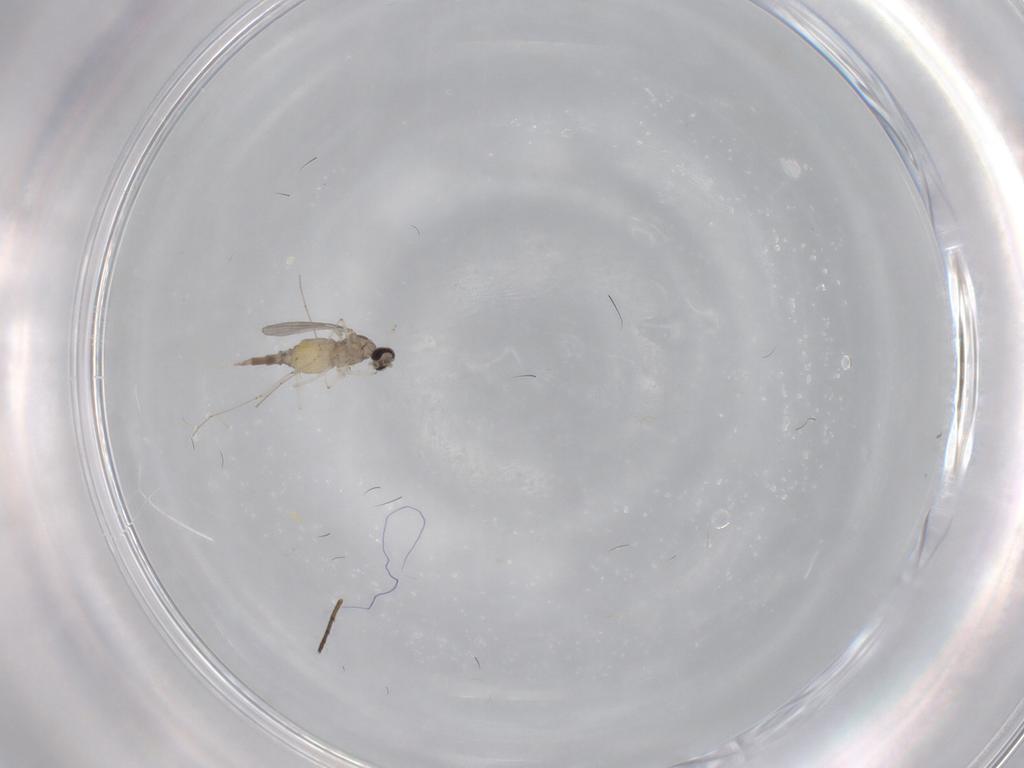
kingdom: Animalia
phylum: Arthropoda
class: Insecta
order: Diptera
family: Cecidomyiidae
